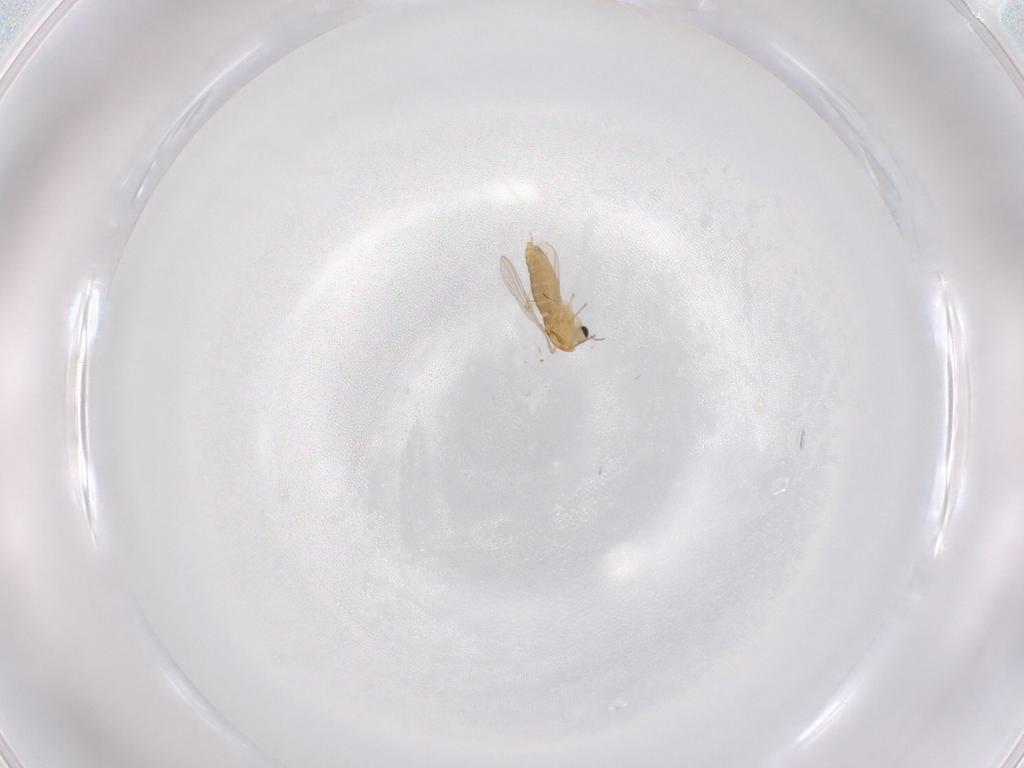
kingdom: Animalia
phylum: Arthropoda
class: Insecta
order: Diptera
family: Chironomidae
